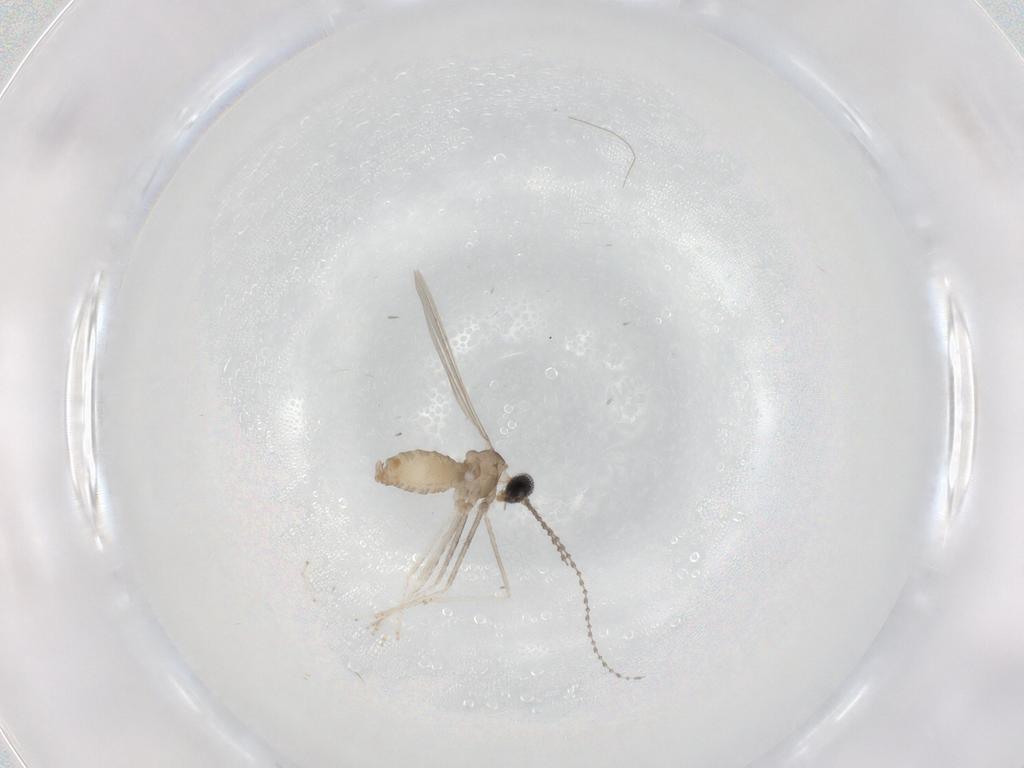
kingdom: Animalia
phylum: Arthropoda
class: Insecta
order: Diptera
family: Cecidomyiidae
